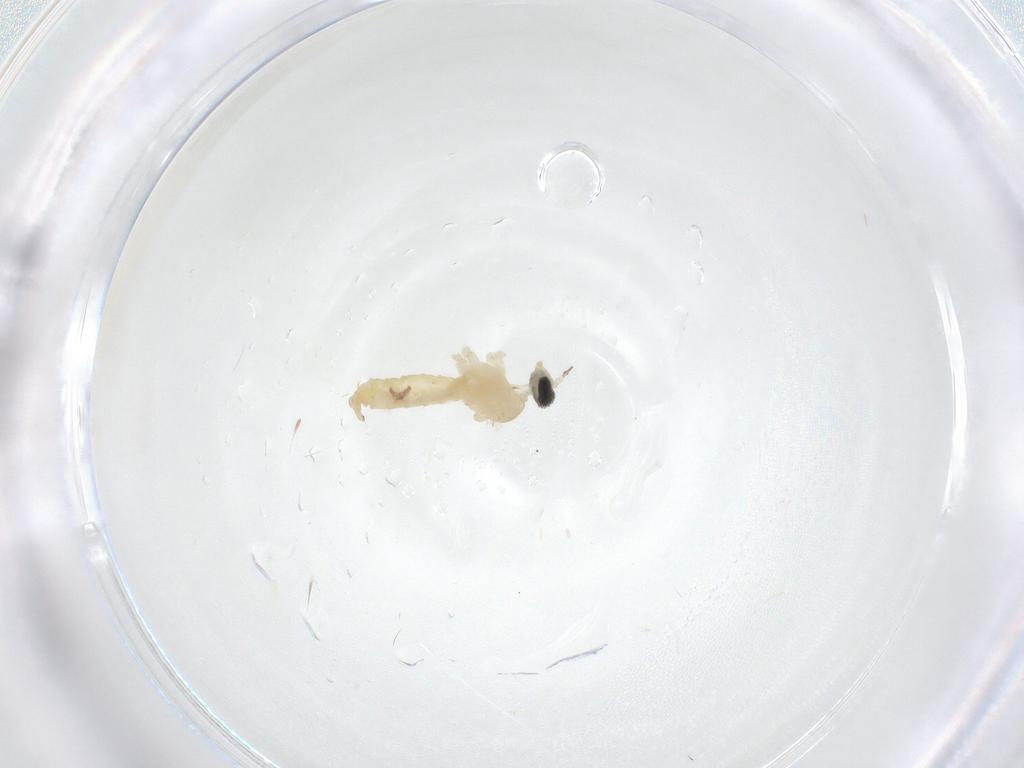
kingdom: Animalia
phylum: Arthropoda
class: Insecta
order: Diptera
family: Cecidomyiidae
